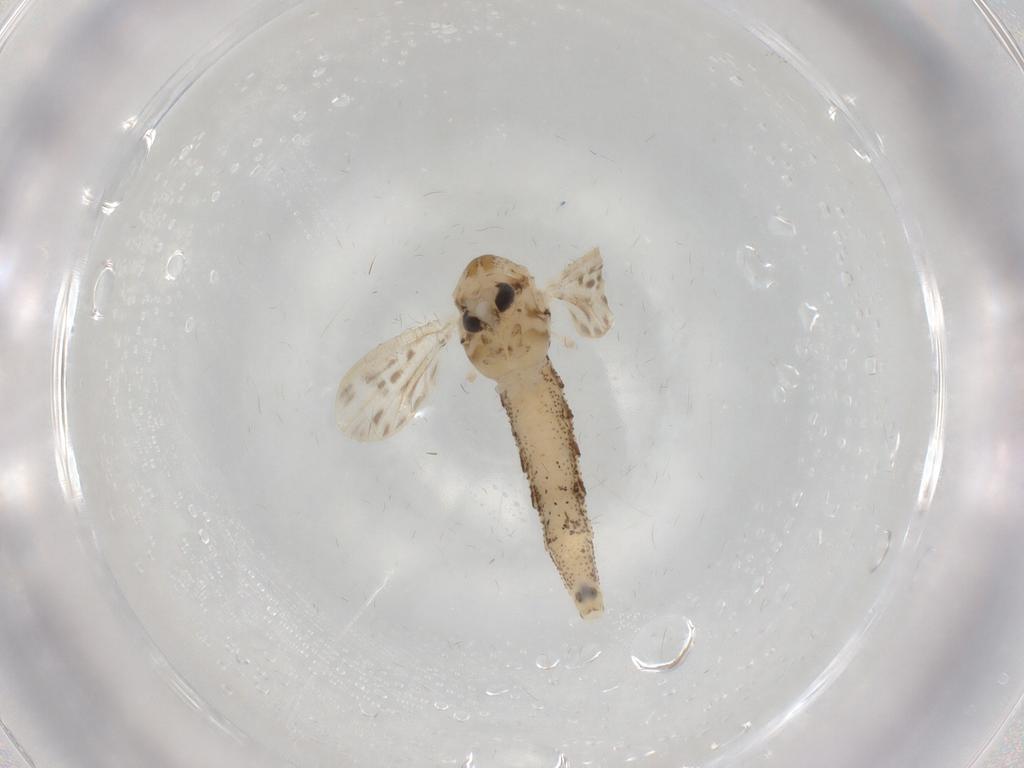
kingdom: Animalia
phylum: Arthropoda
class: Insecta
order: Diptera
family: Chaoboridae
